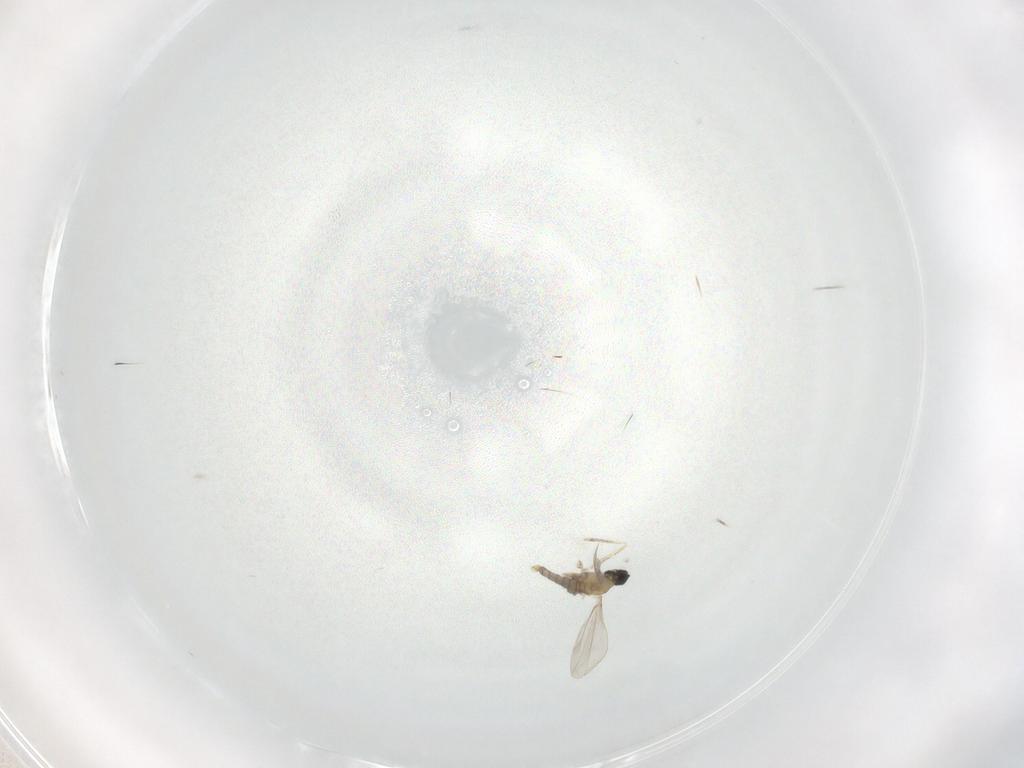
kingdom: Animalia
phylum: Arthropoda
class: Insecta
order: Diptera
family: Cecidomyiidae
